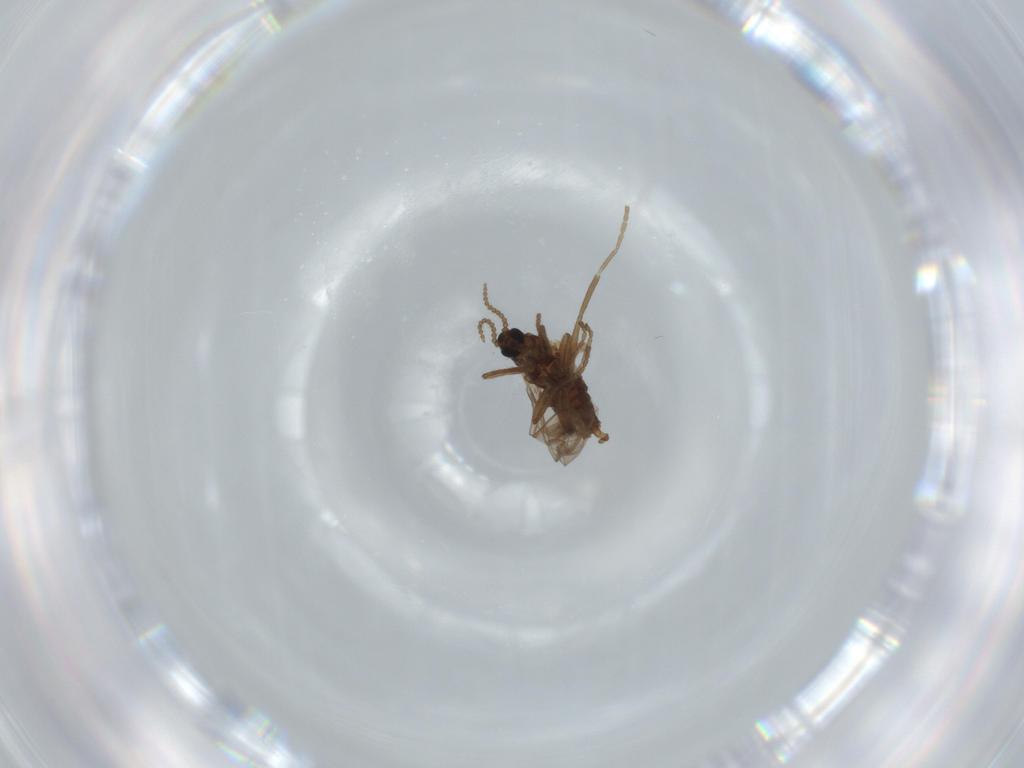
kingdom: Animalia
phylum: Arthropoda
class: Insecta
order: Diptera
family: Cecidomyiidae
